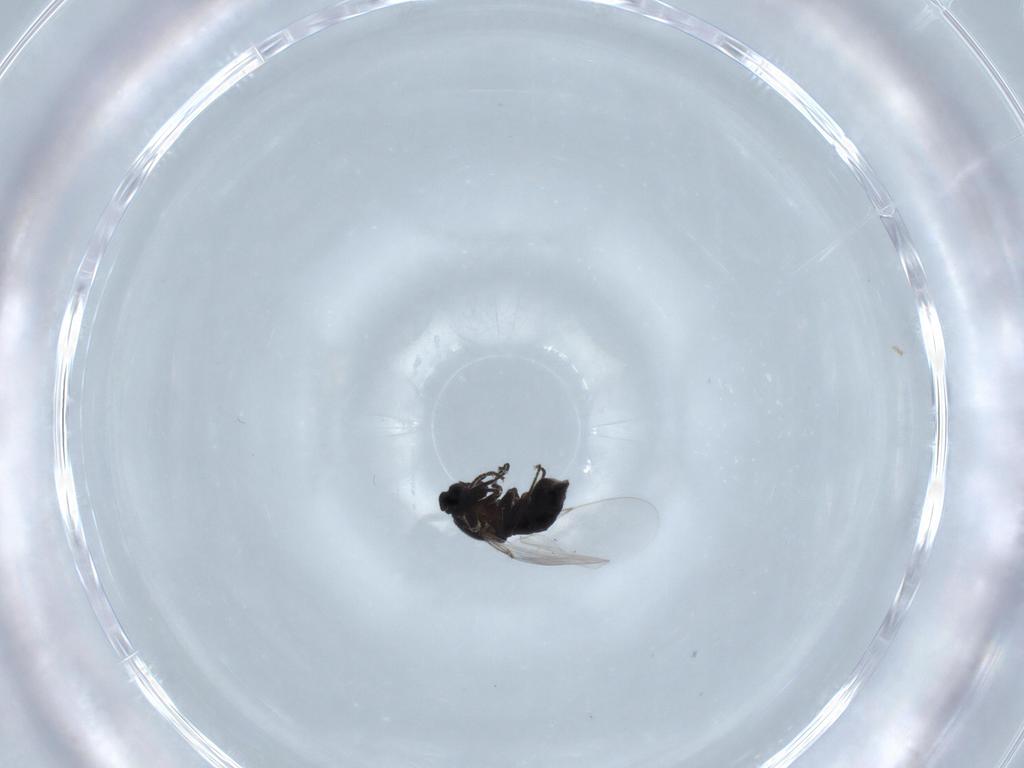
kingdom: Animalia
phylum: Arthropoda
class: Insecta
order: Diptera
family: Scatopsidae
